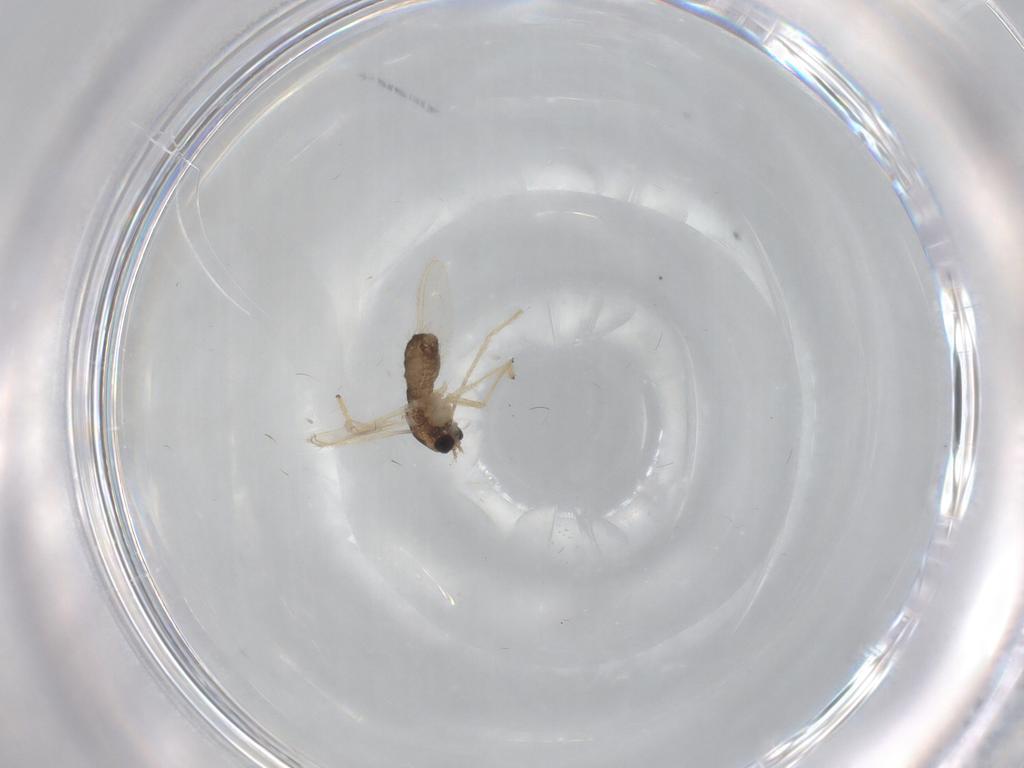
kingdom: Animalia
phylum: Arthropoda
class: Insecta
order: Diptera
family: Chironomidae
